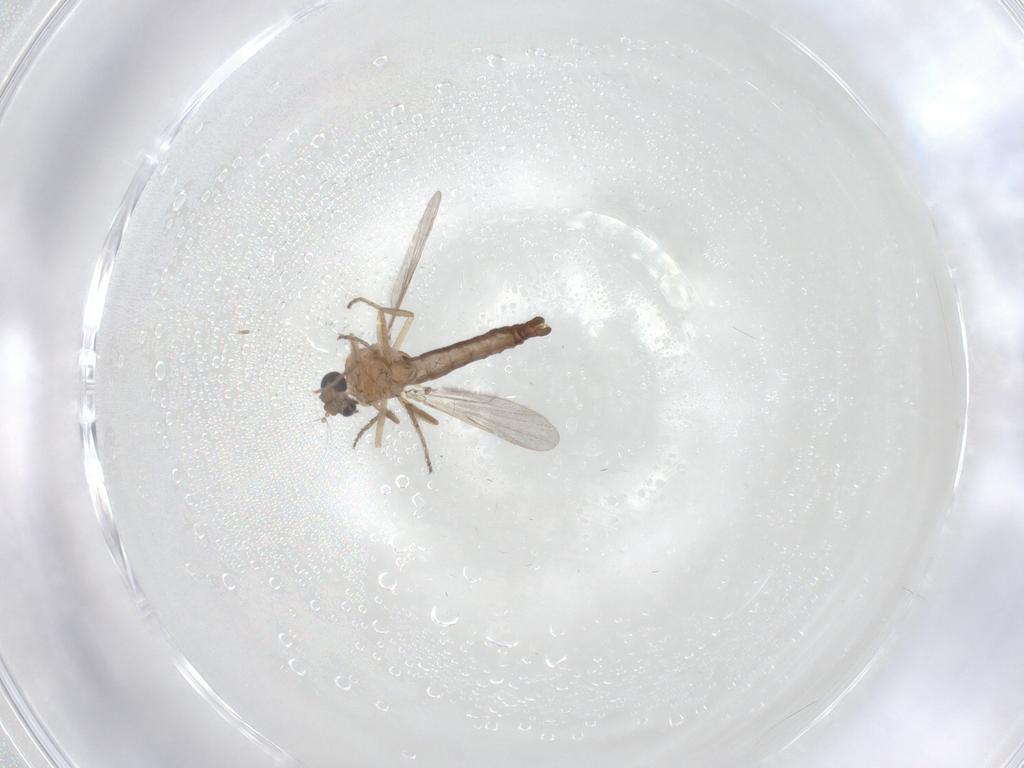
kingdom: Animalia
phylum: Arthropoda
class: Insecta
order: Diptera
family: Ceratopogonidae
